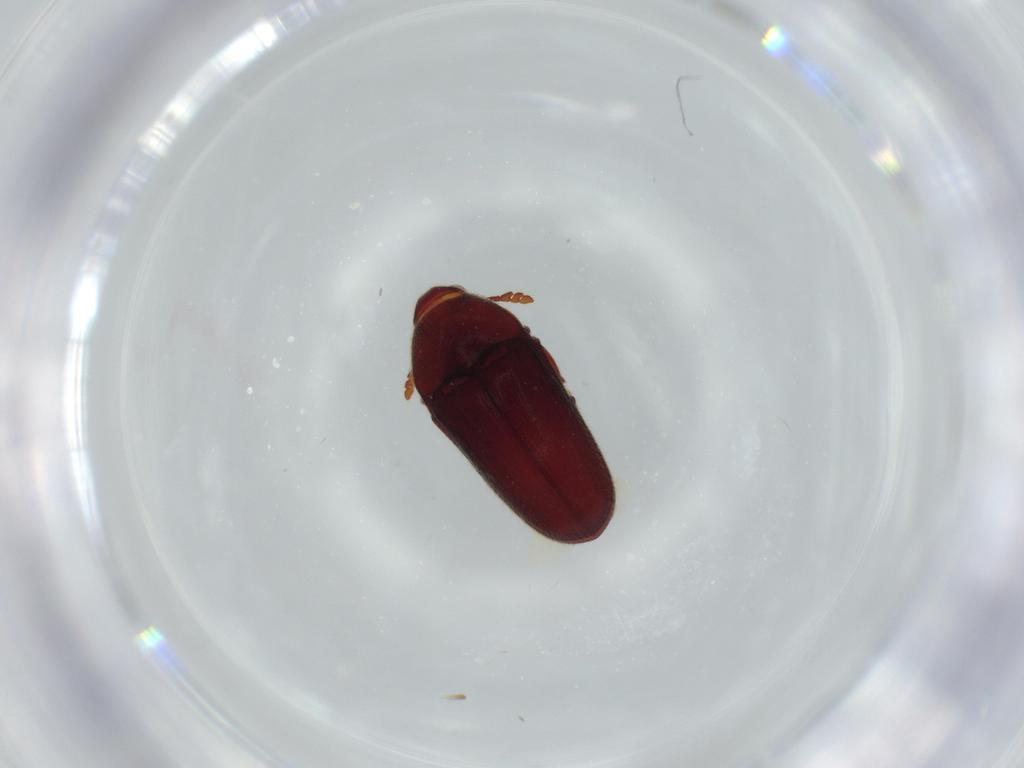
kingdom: Animalia
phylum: Arthropoda
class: Insecta
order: Coleoptera
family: Throscidae
